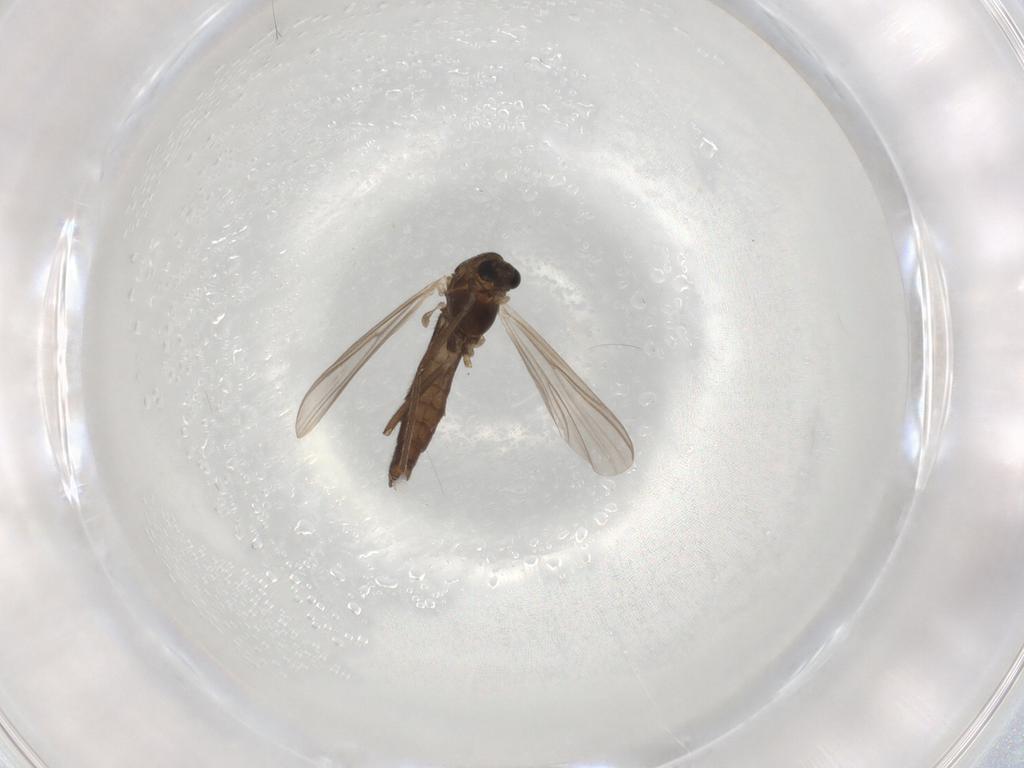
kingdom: Animalia
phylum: Arthropoda
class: Insecta
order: Diptera
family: Chironomidae
